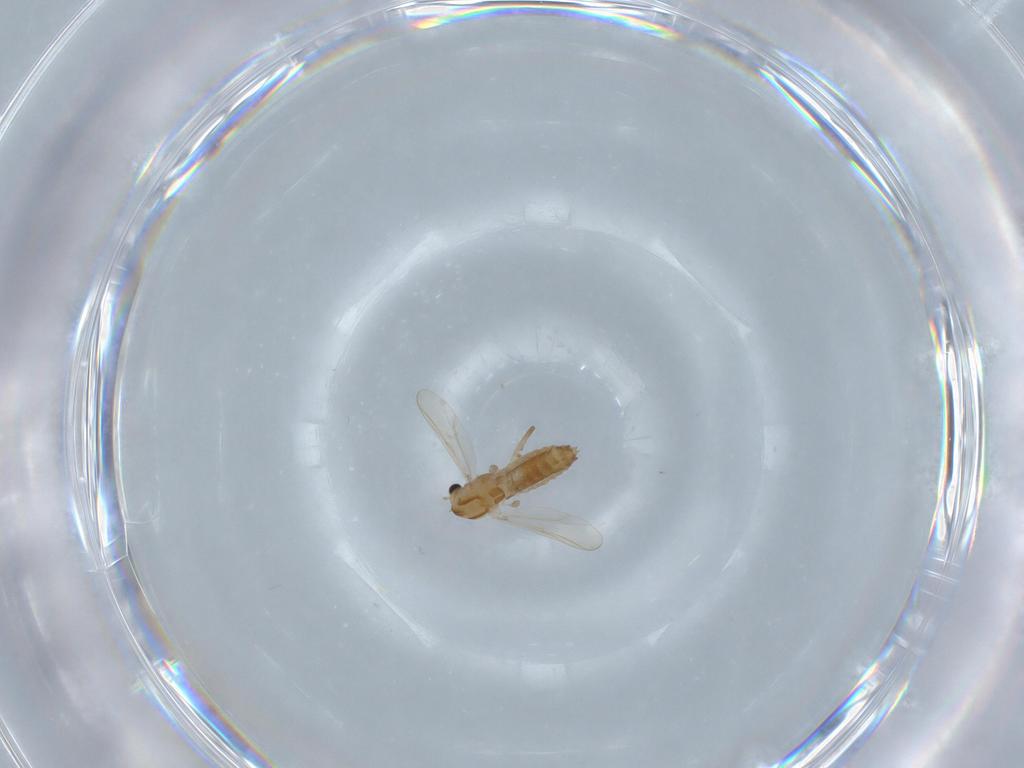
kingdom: Animalia
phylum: Arthropoda
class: Insecta
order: Diptera
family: Chironomidae
